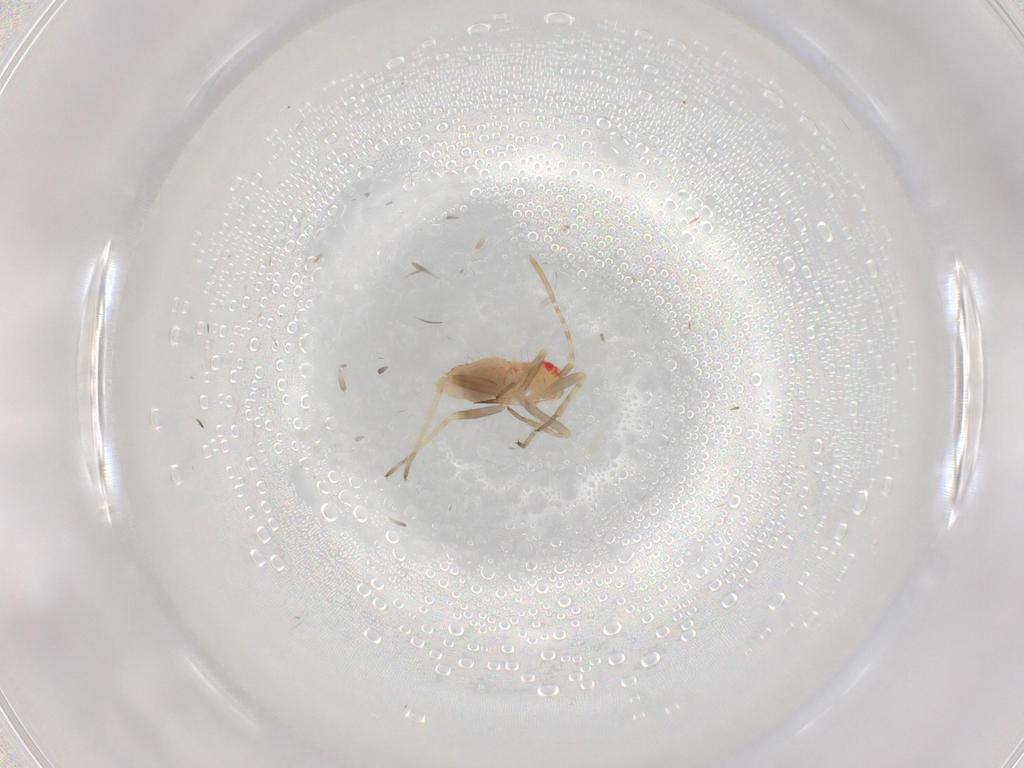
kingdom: Animalia
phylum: Arthropoda
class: Insecta
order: Hemiptera
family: Miridae
